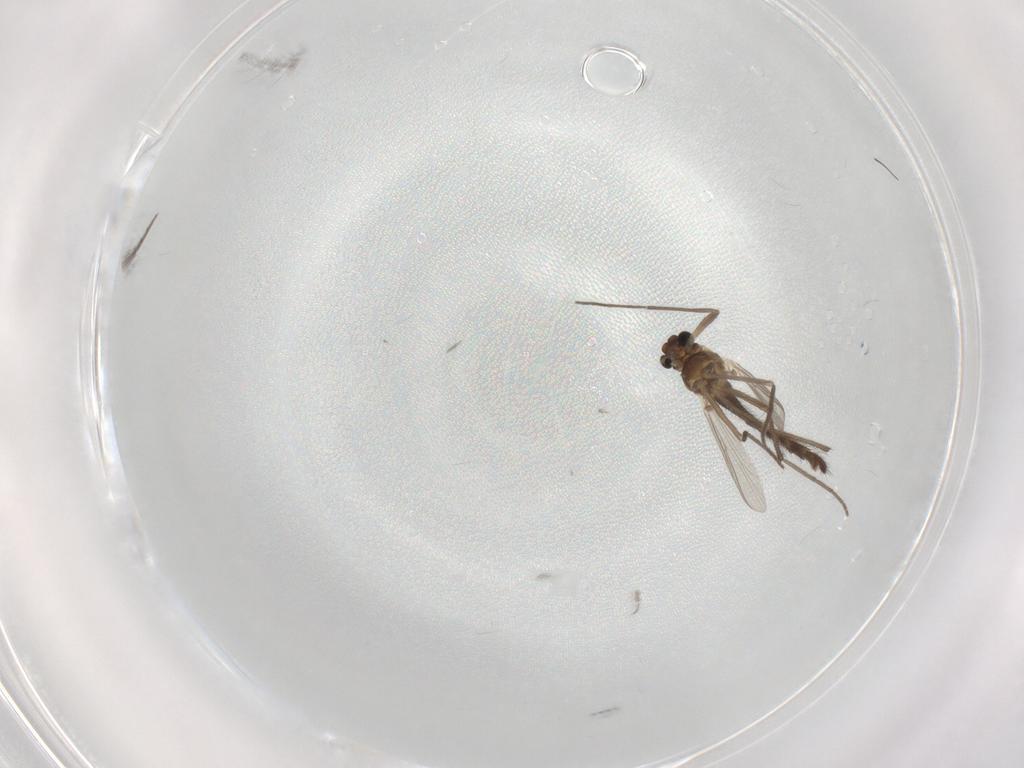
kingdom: Animalia
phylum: Arthropoda
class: Insecta
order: Diptera
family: Chironomidae
